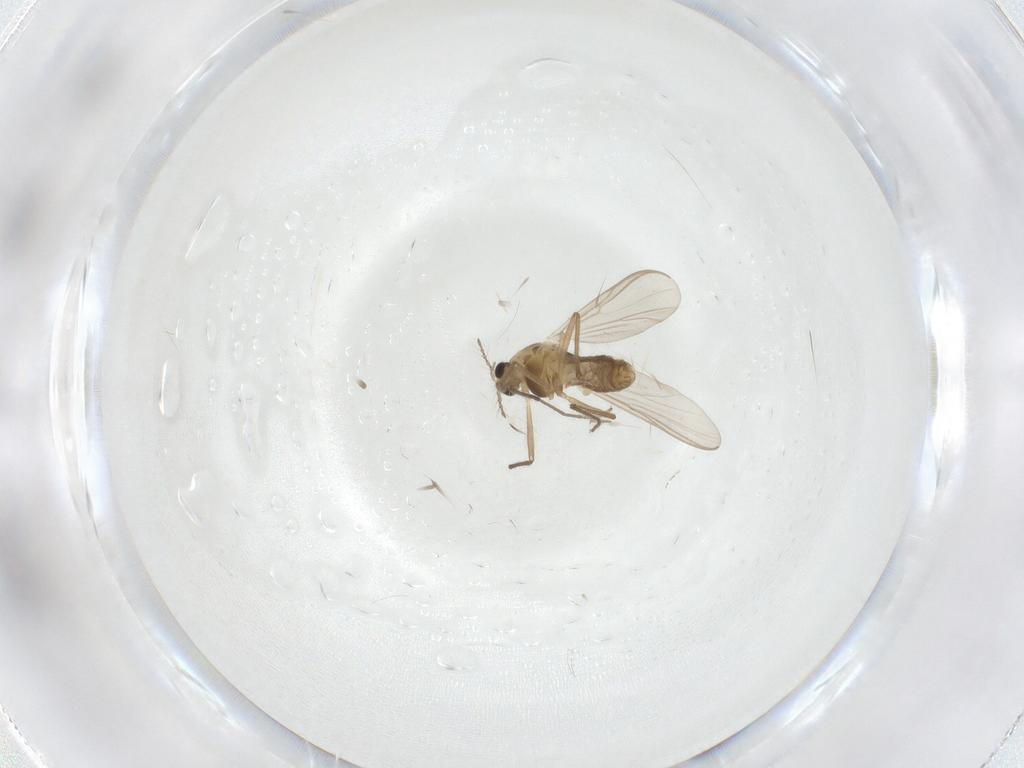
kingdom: Animalia
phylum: Arthropoda
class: Insecta
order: Diptera
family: Chironomidae
